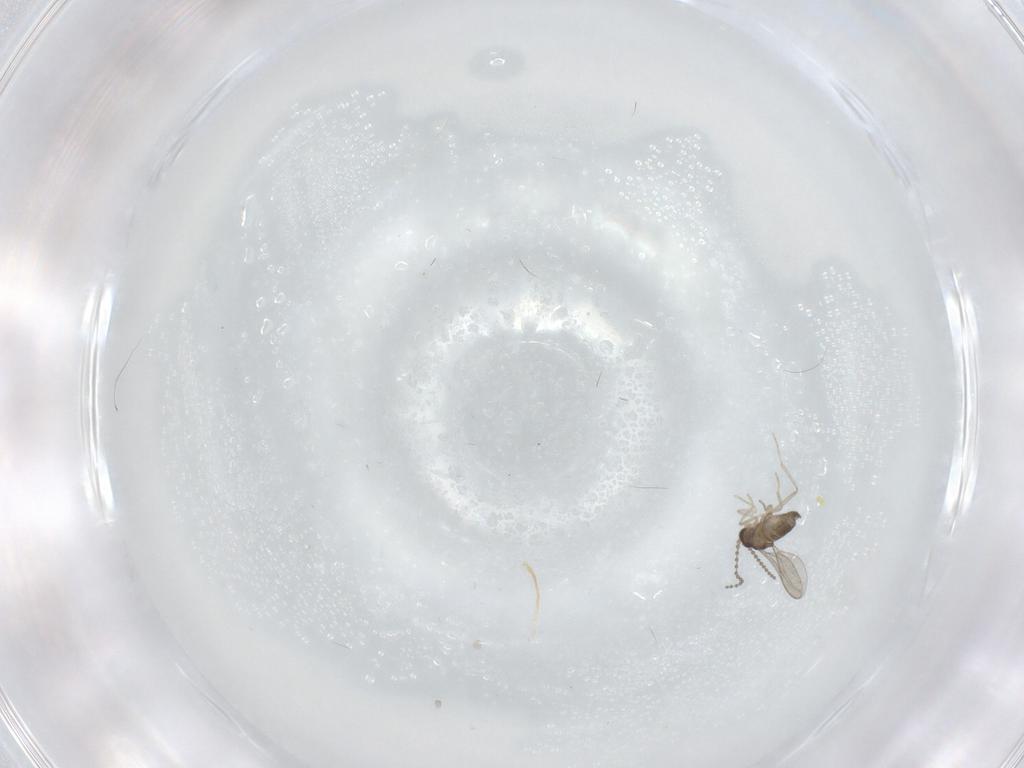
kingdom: Animalia
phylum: Arthropoda
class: Insecta
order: Diptera
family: Cecidomyiidae
